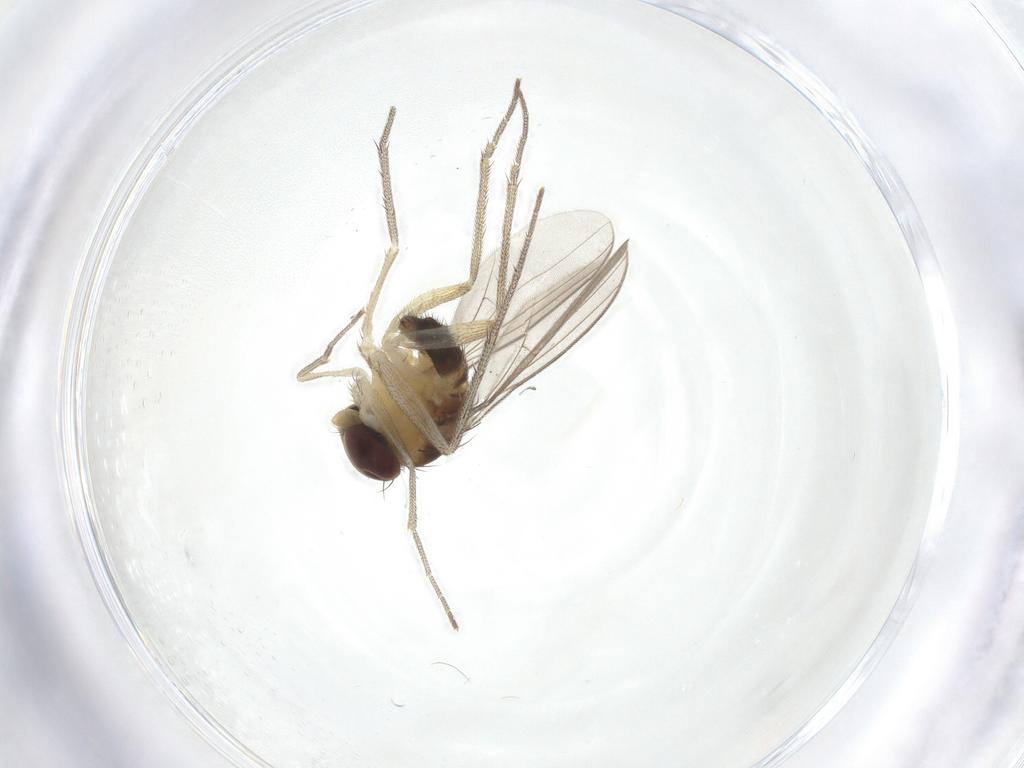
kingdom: Animalia
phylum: Arthropoda
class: Insecta
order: Diptera
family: Dolichopodidae
